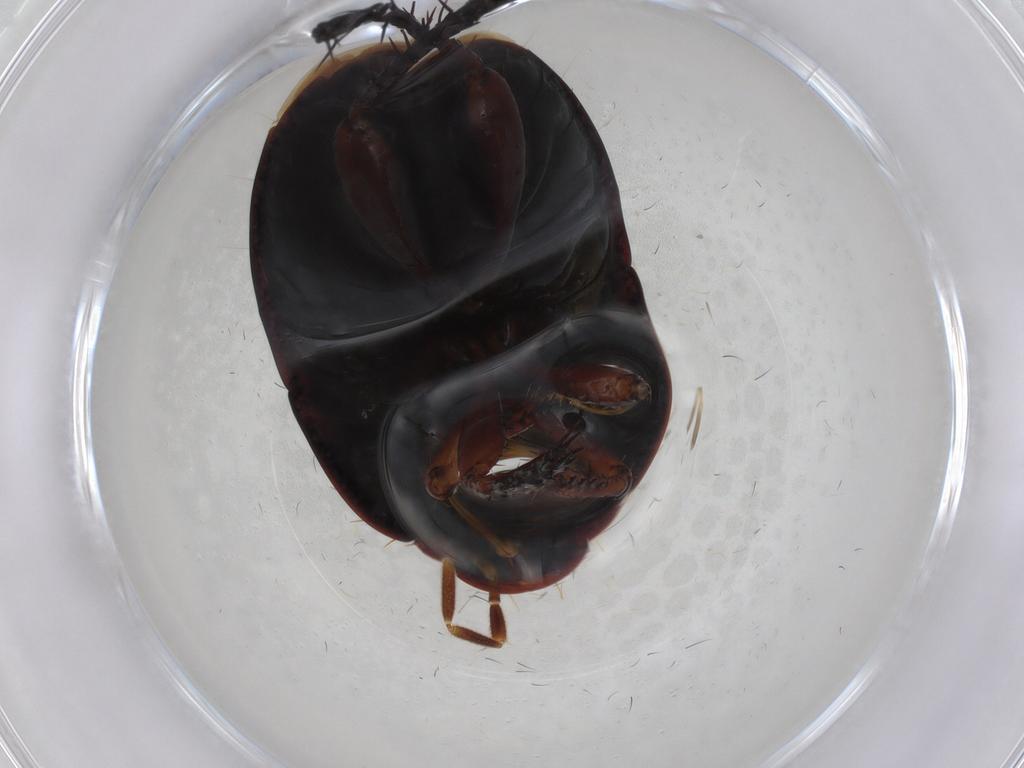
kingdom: Animalia
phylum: Arthropoda
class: Insecta
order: Hemiptera
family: Cydnidae
